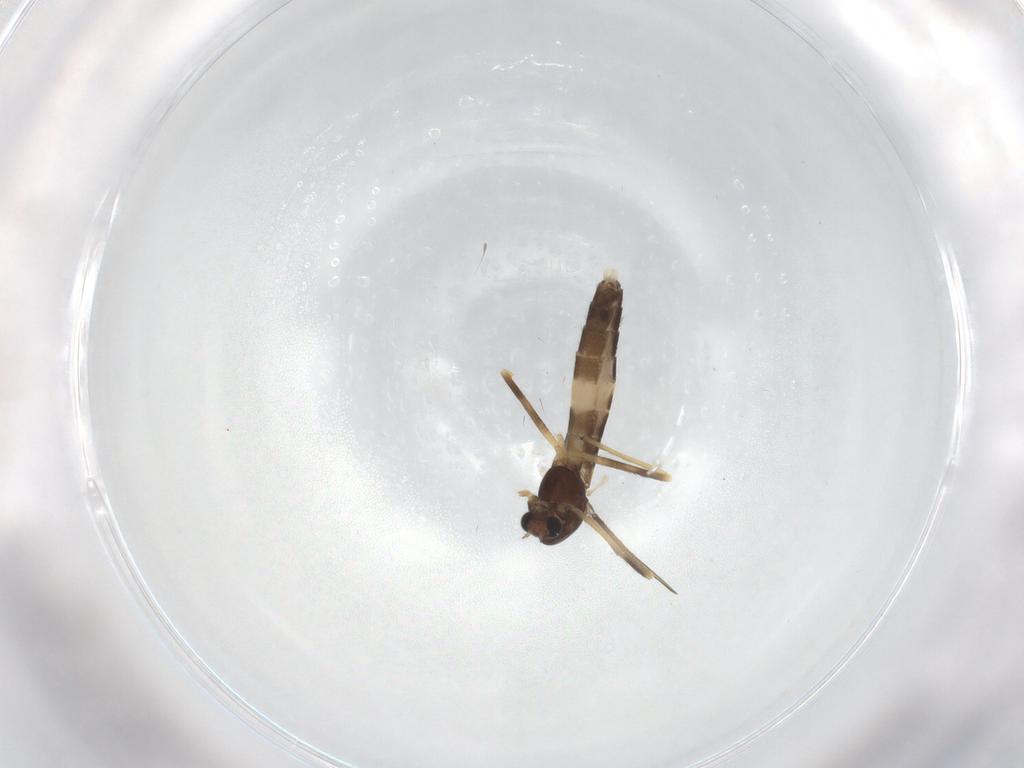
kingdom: Animalia
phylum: Arthropoda
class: Insecta
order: Diptera
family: Chironomidae
